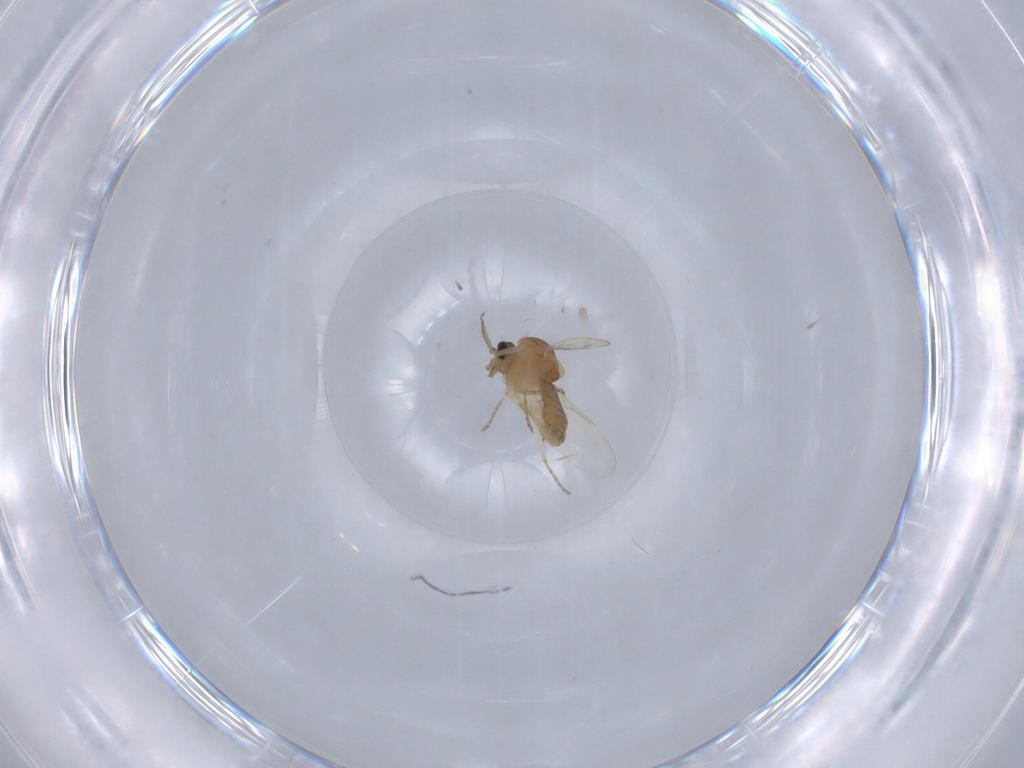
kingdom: Animalia
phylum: Arthropoda
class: Insecta
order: Diptera
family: Ceratopogonidae
